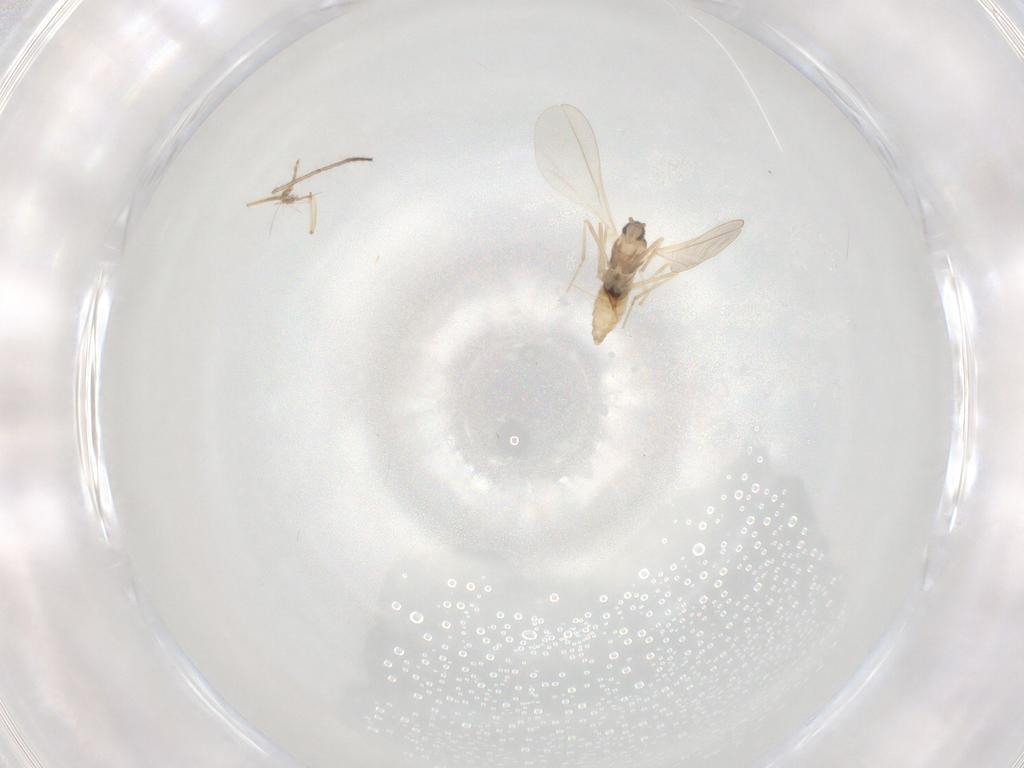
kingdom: Animalia
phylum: Arthropoda
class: Insecta
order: Diptera
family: Cecidomyiidae
